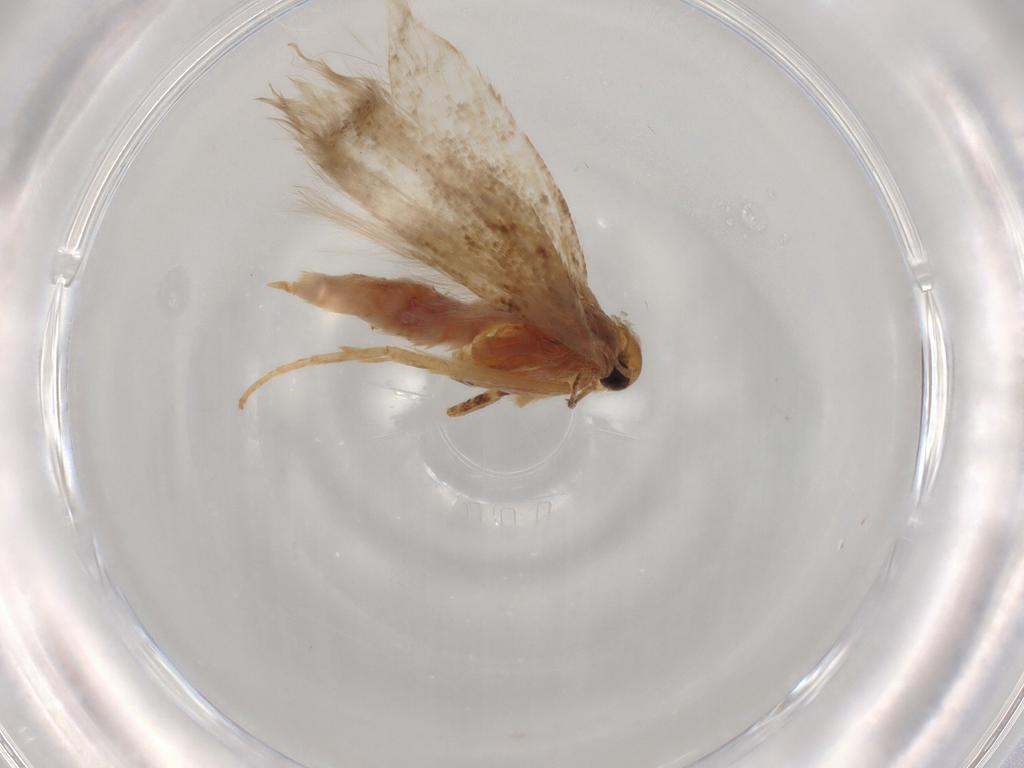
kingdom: Animalia
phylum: Arthropoda
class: Insecta
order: Lepidoptera
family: Gelechiidae
